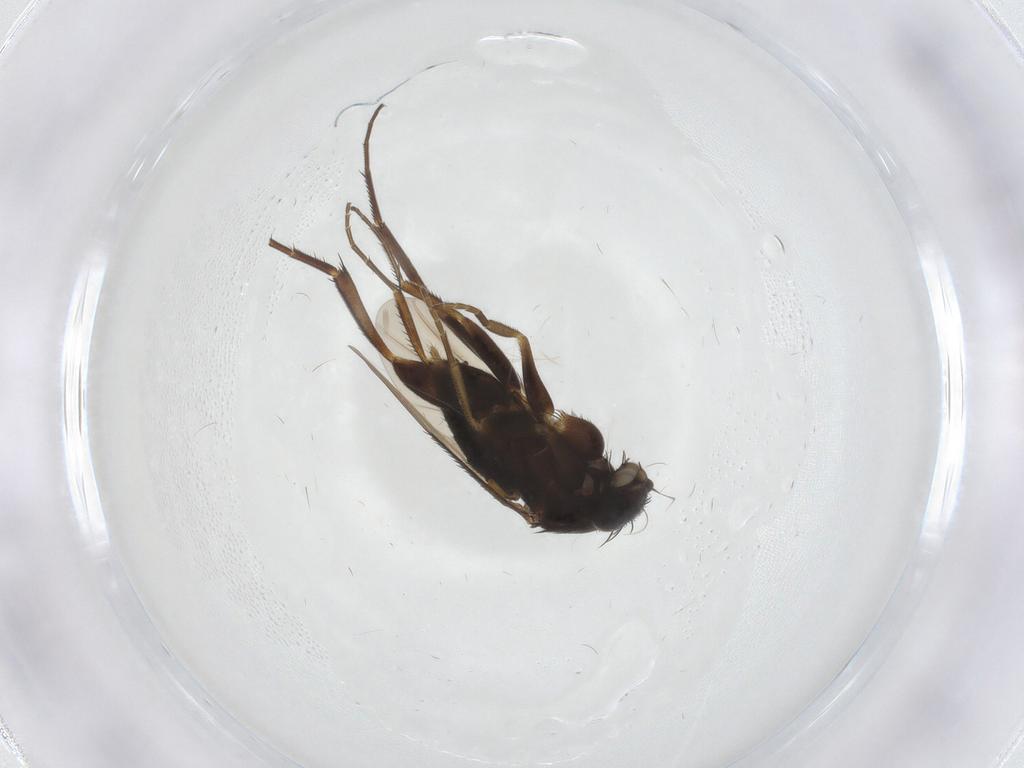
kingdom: Animalia
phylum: Arthropoda
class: Insecta
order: Diptera
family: Phoridae
